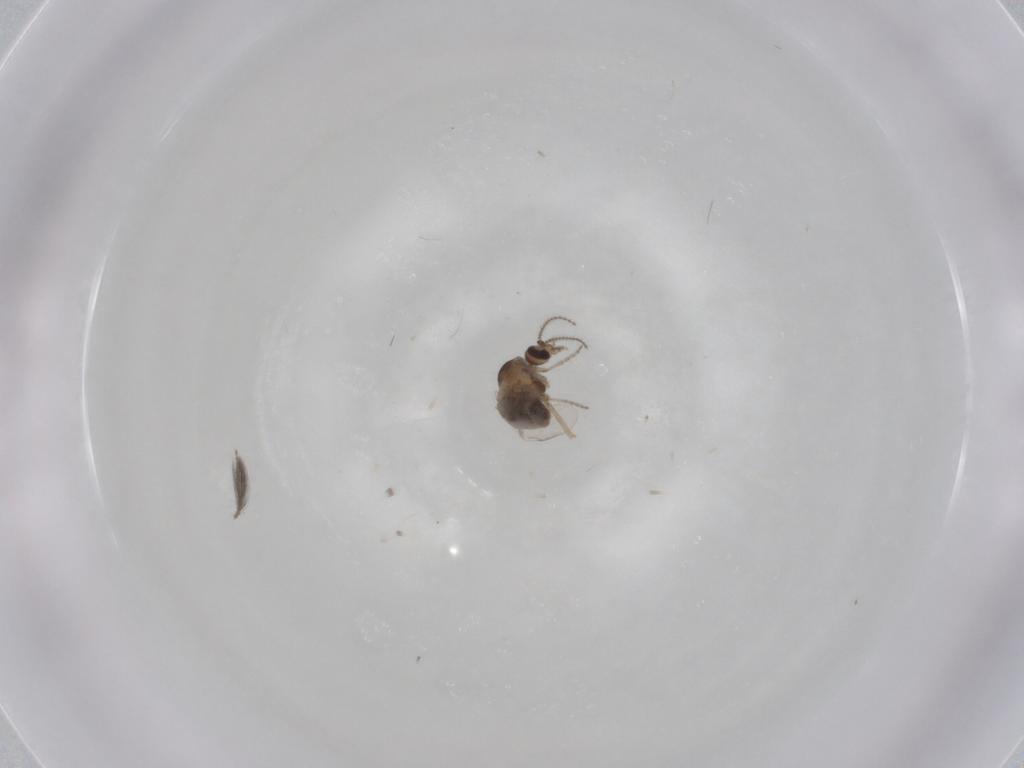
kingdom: Animalia
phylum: Arthropoda
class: Insecta
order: Diptera
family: Ceratopogonidae
